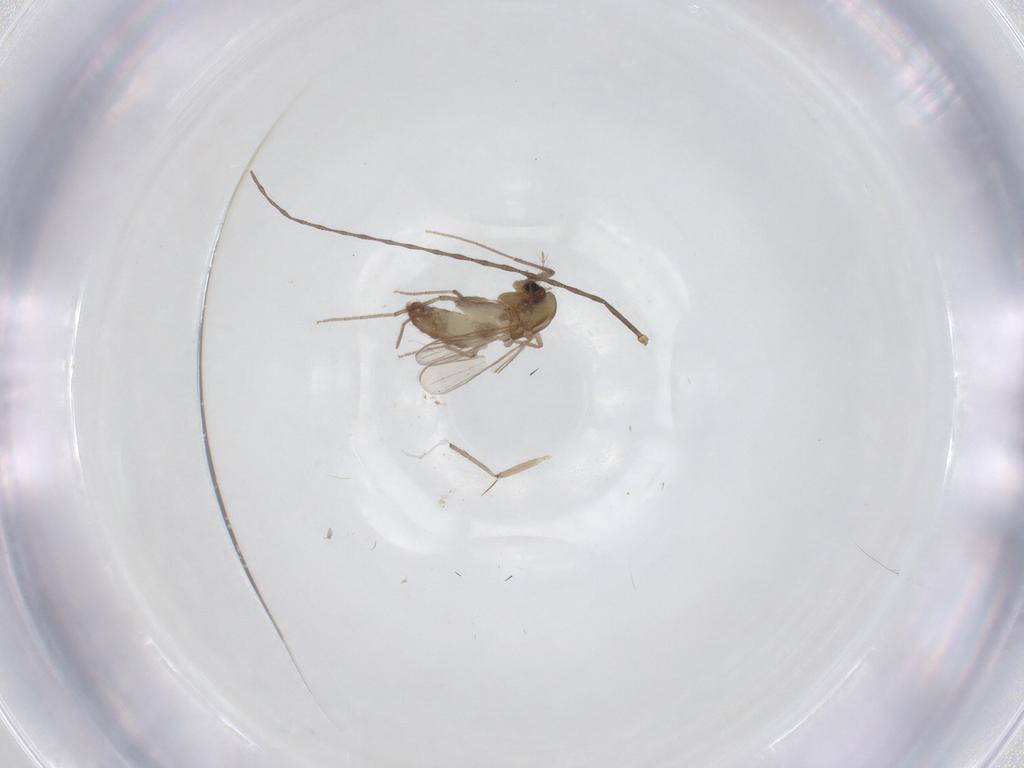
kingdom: Animalia
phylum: Arthropoda
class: Insecta
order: Diptera
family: Chironomidae
